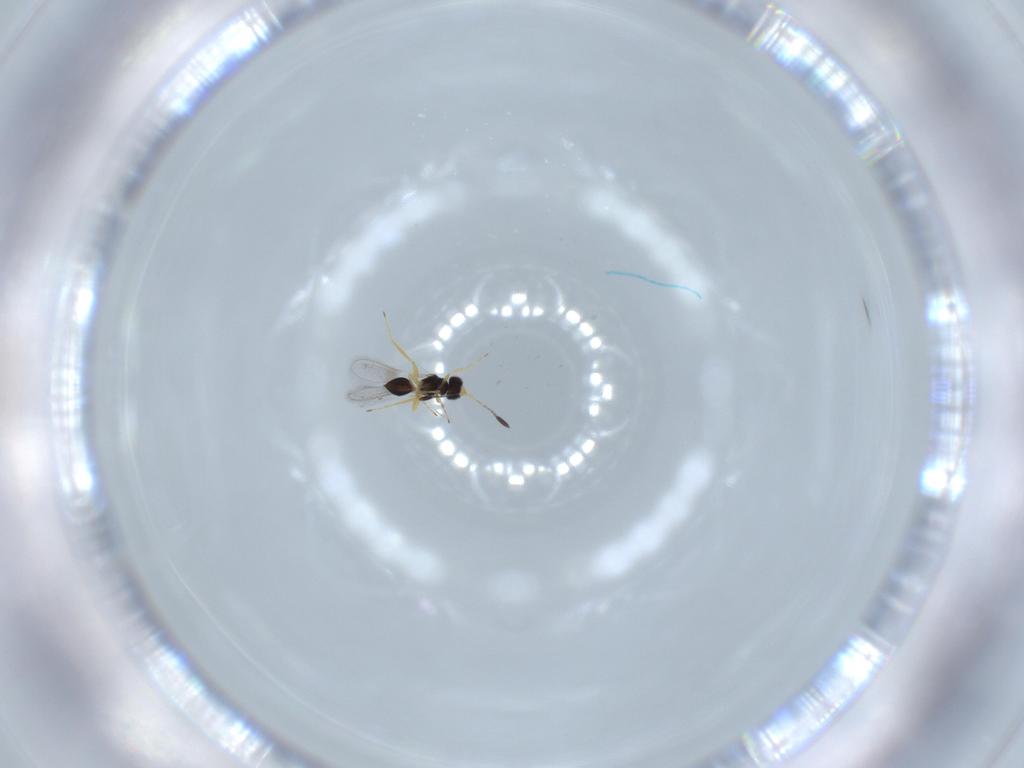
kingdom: Animalia
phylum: Arthropoda
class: Insecta
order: Hymenoptera
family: Mymaridae
